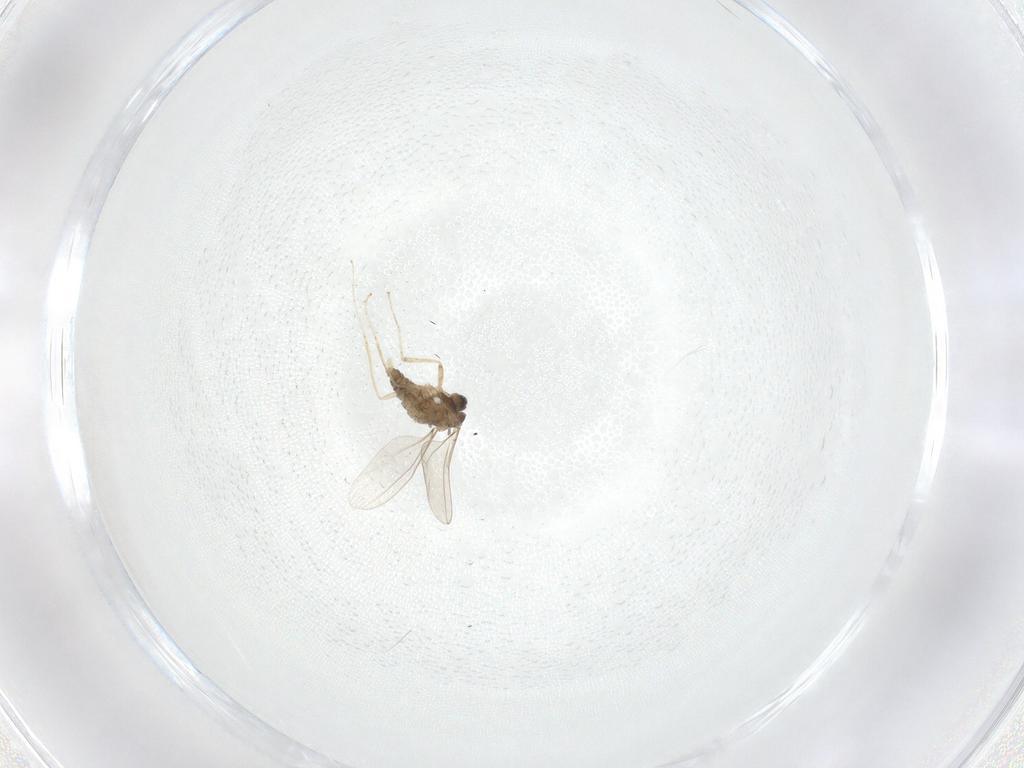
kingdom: Animalia
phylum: Arthropoda
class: Insecta
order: Diptera
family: Cecidomyiidae
